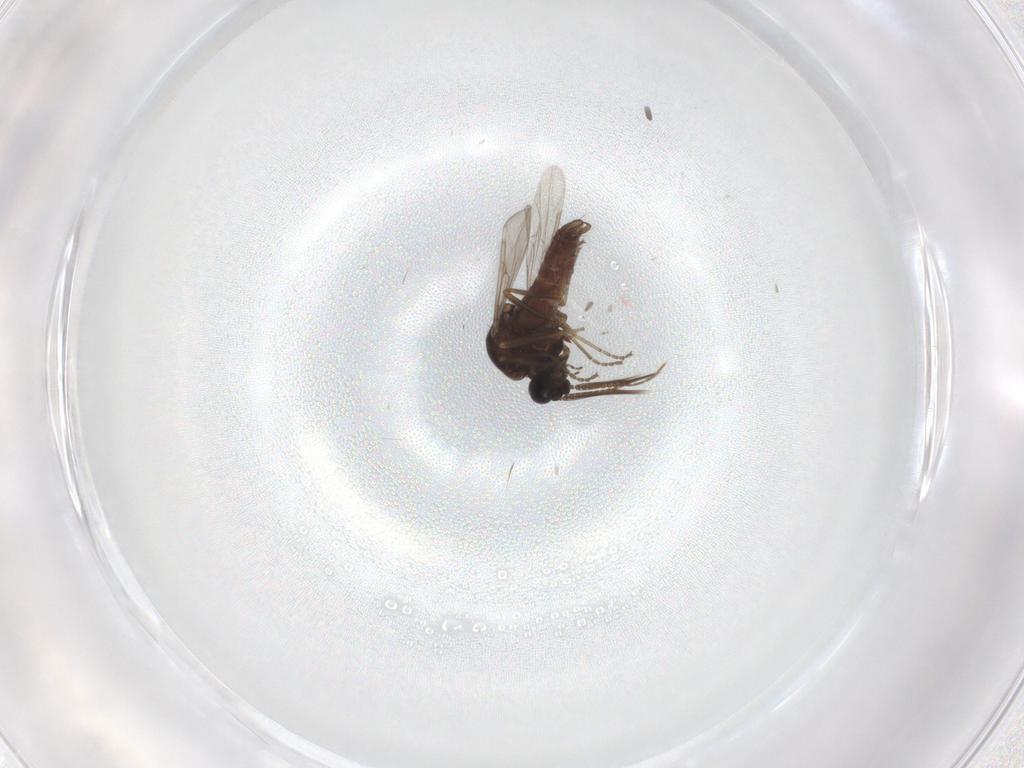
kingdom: Animalia
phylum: Arthropoda
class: Insecta
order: Diptera
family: Ceratopogonidae
